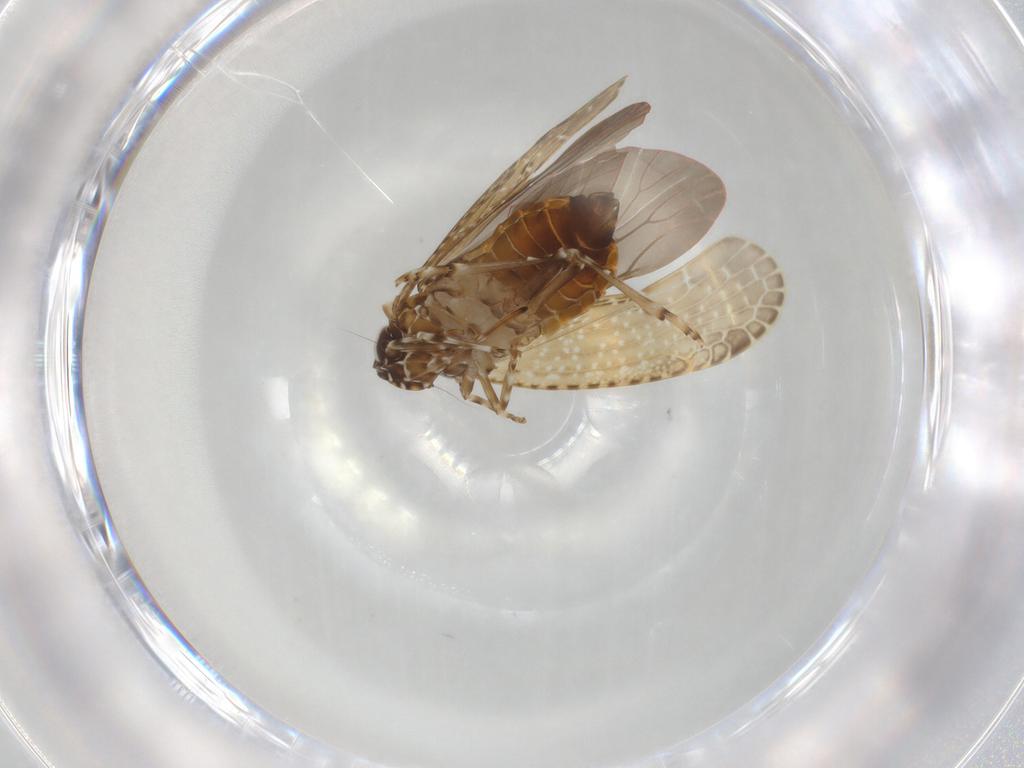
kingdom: Animalia
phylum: Arthropoda
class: Insecta
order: Hemiptera
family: Achilidae
